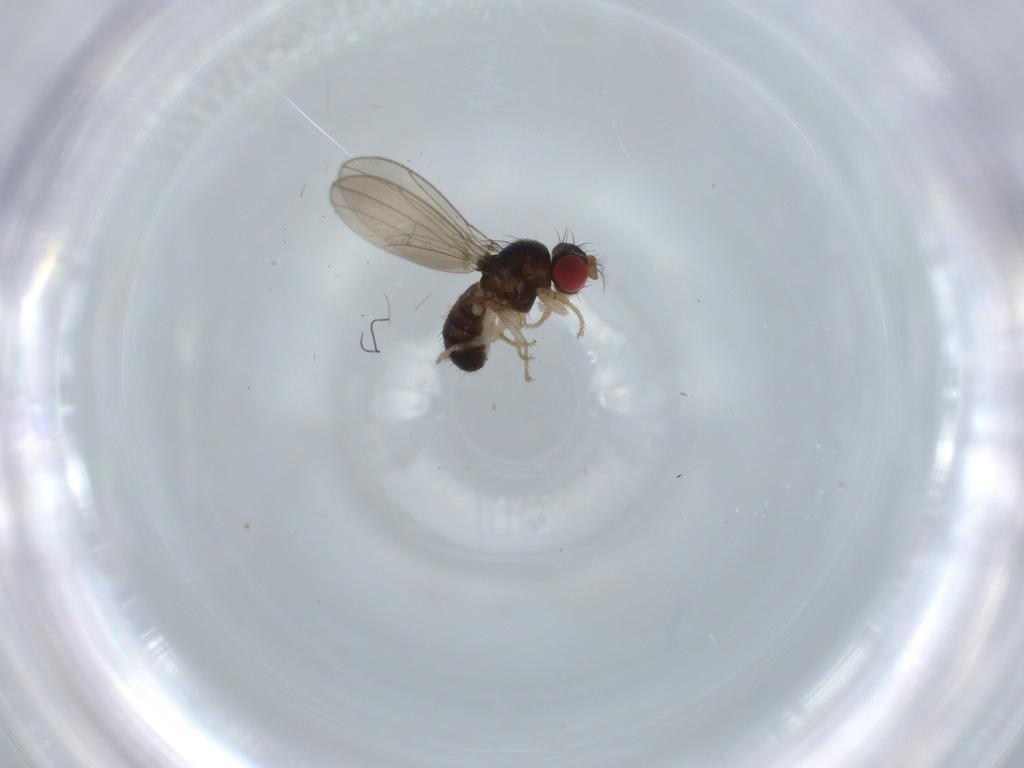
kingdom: Animalia
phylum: Arthropoda
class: Insecta
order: Diptera
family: Drosophilidae
